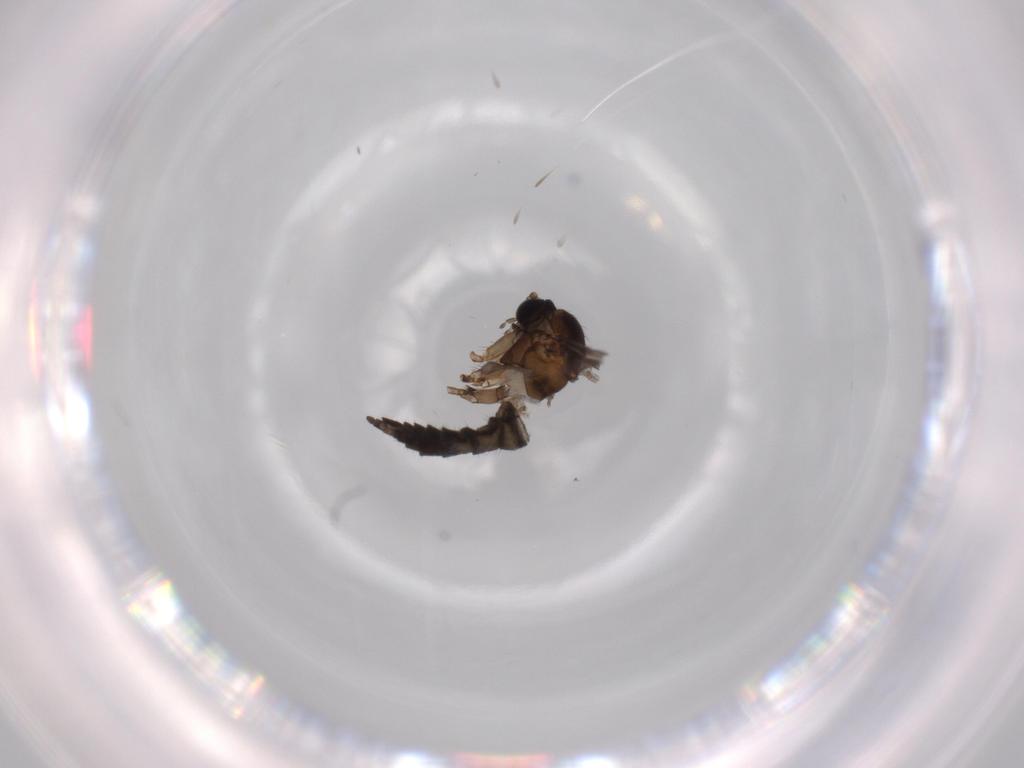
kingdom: Animalia
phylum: Arthropoda
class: Insecta
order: Diptera
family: Sciaridae
